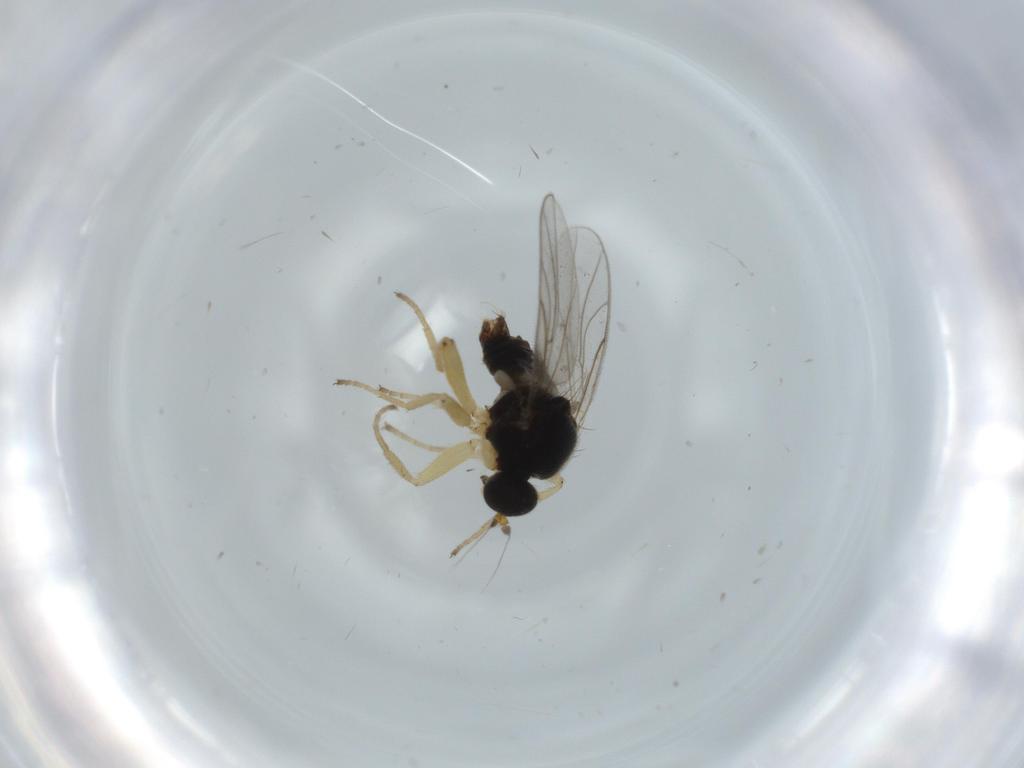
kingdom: Animalia
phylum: Arthropoda
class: Insecta
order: Diptera
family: Hybotidae
